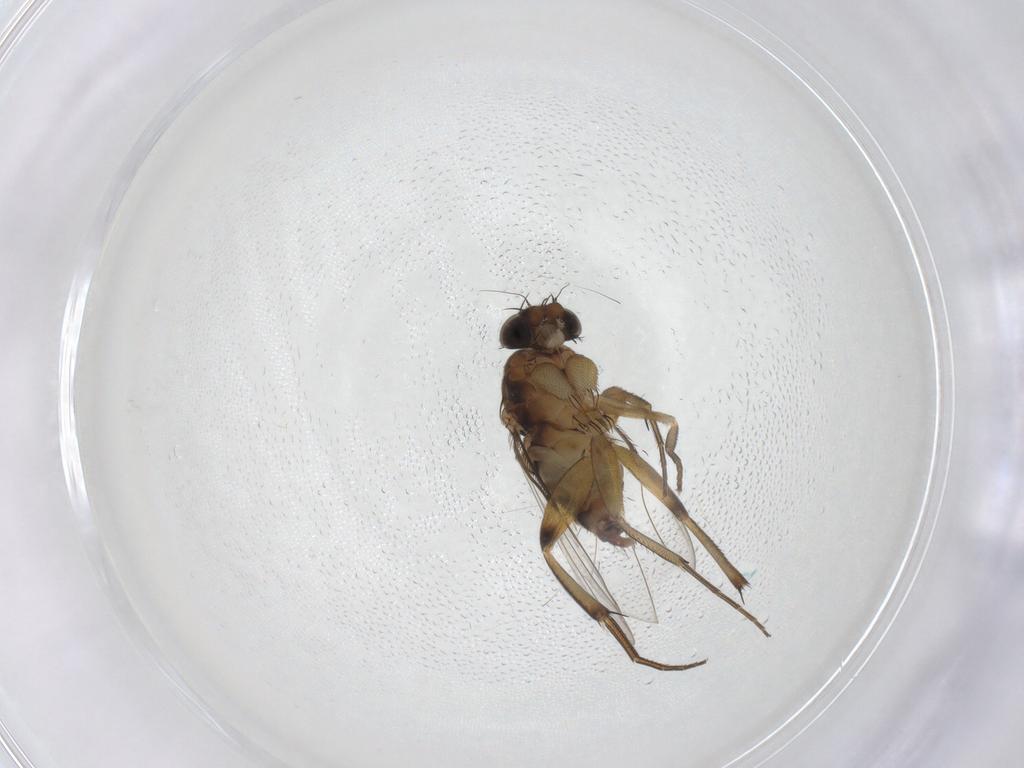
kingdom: Animalia
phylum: Arthropoda
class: Insecta
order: Diptera
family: Phoridae
